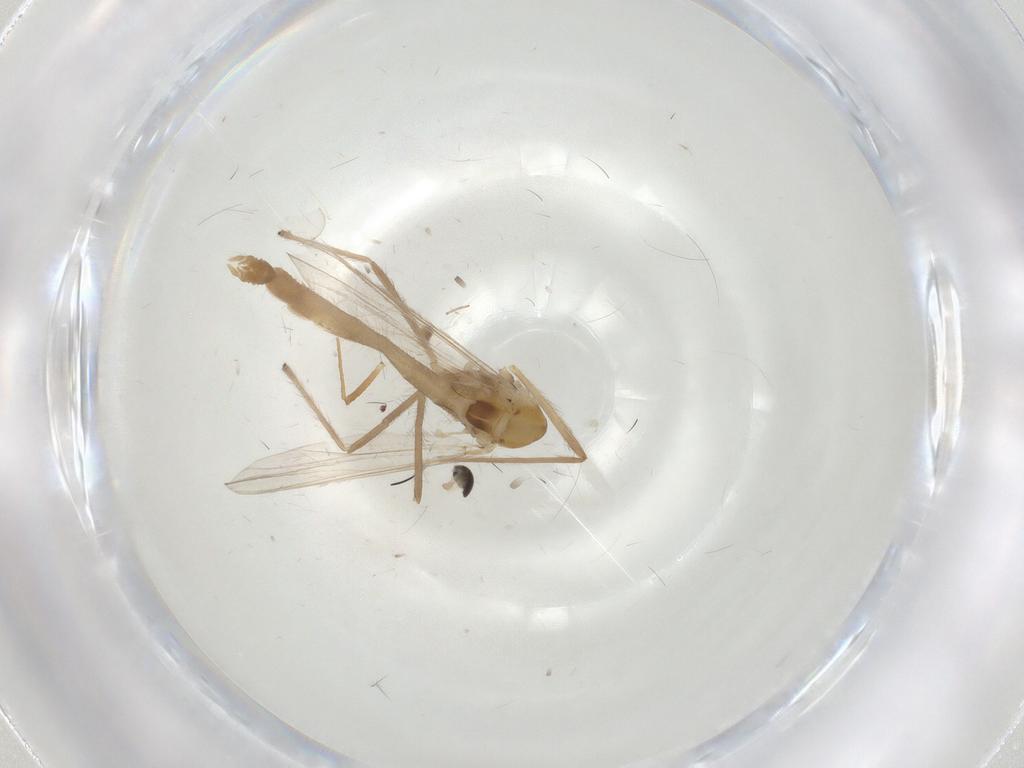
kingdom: Animalia
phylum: Arthropoda
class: Insecta
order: Diptera
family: Chironomidae
